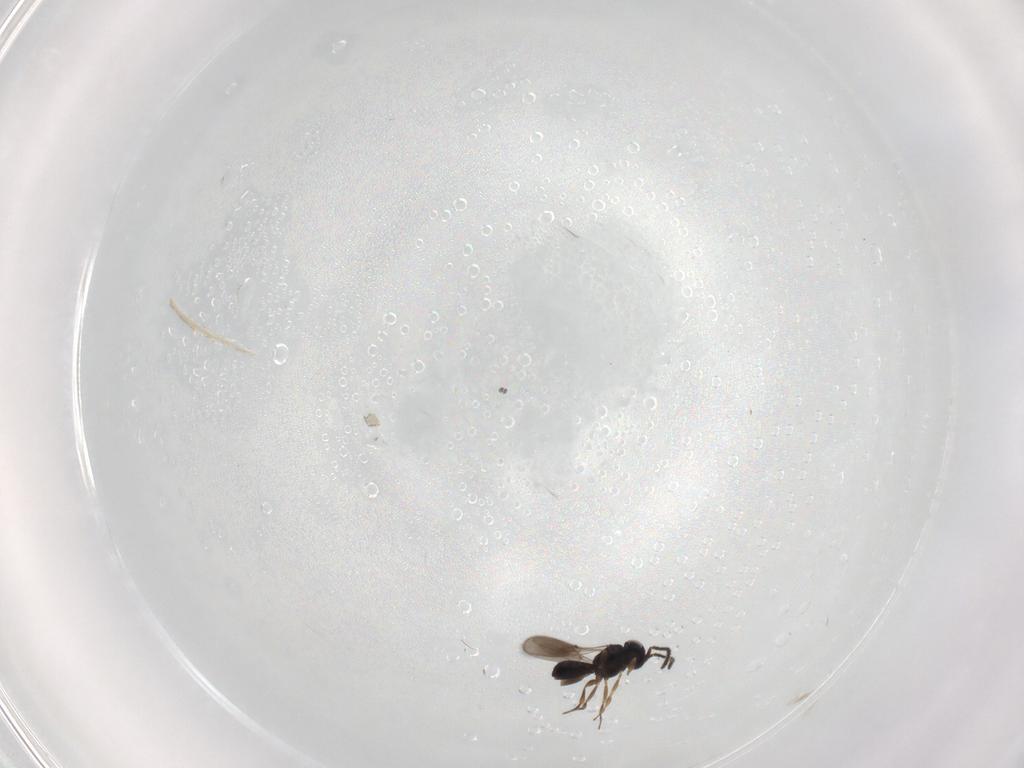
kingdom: Animalia
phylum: Arthropoda
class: Insecta
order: Hymenoptera
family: Scelionidae
